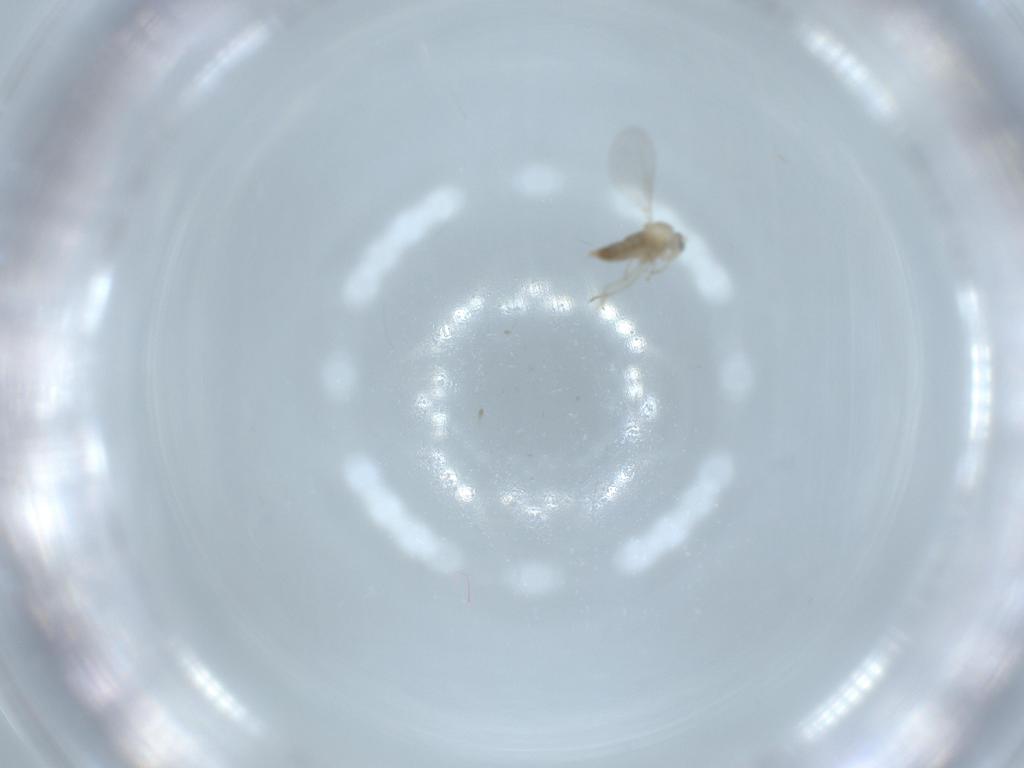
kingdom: Animalia
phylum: Arthropoda
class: Insecta
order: Diptera
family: Cecidomyiidae
